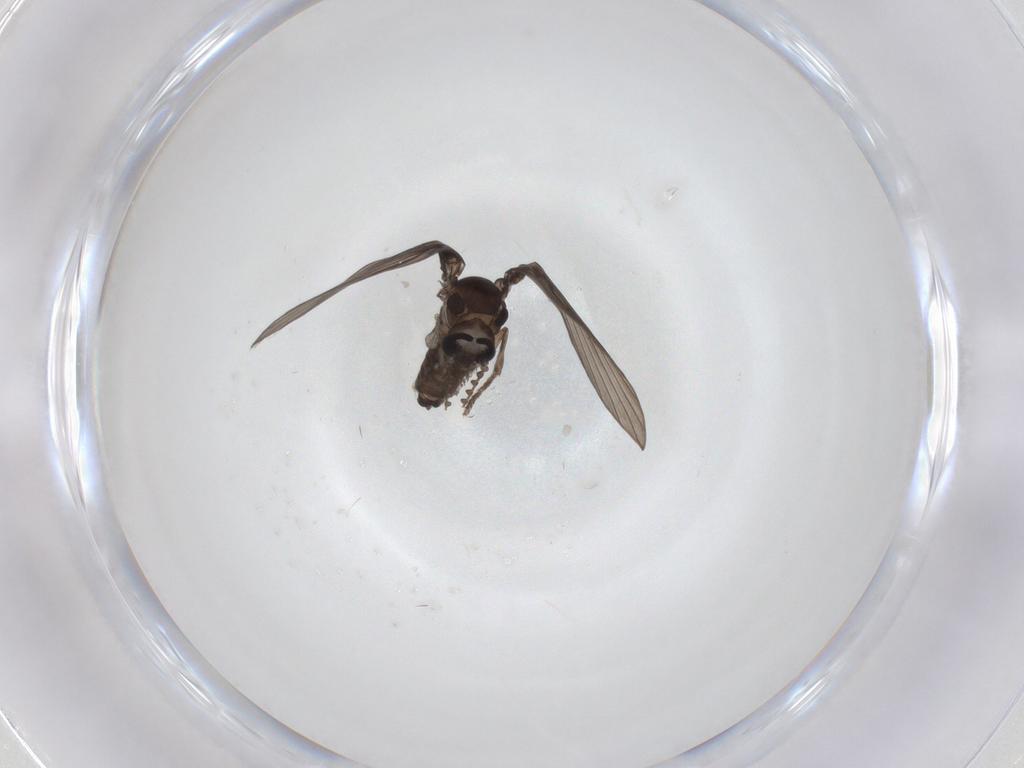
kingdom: Animalia
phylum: Arthropoda
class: Insecta
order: Diptera
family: Psychodidae
